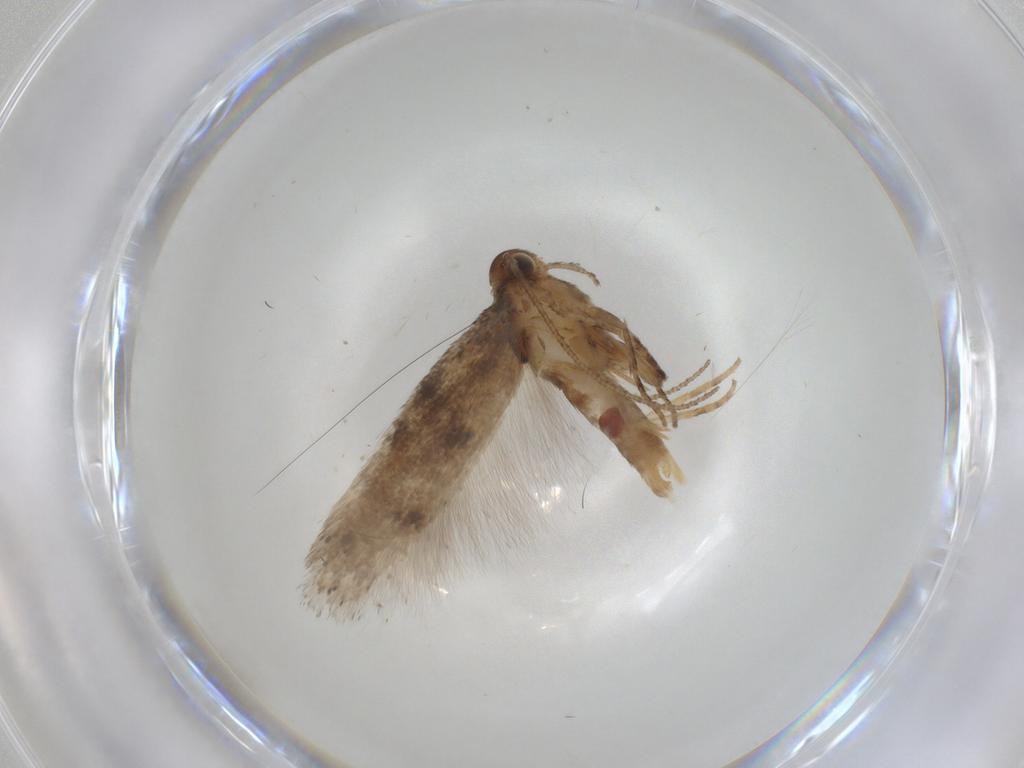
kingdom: Animalia
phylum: Arthropoda
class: Insecta
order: Lepidoptera
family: Gelechiidae
